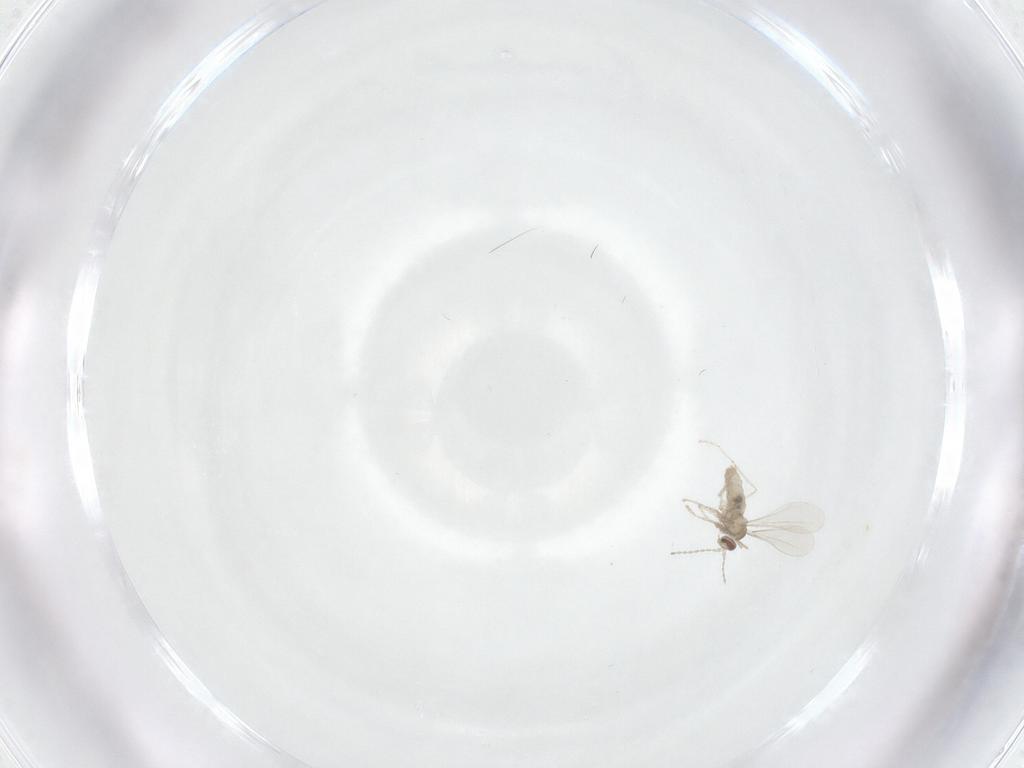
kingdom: Animalia
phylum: Arthropoda
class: Insecta
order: Diptera
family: Cecidomyiidae
